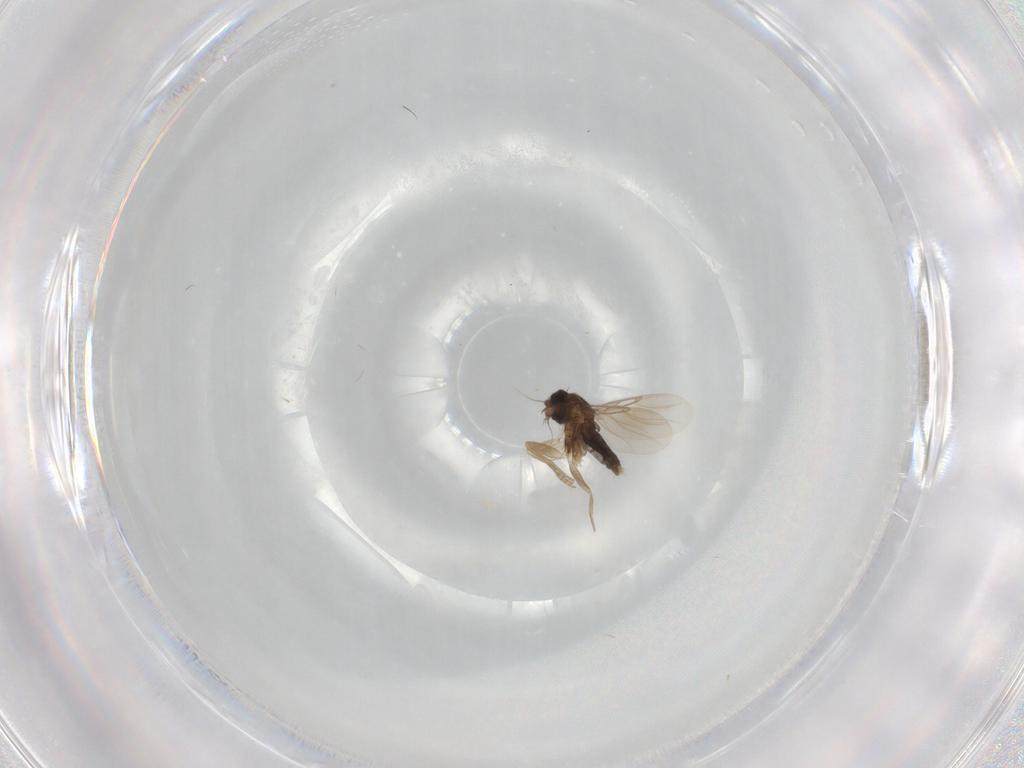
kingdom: Animalia
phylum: Arthropoda
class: Insecta
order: Diptera
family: Phoridae
